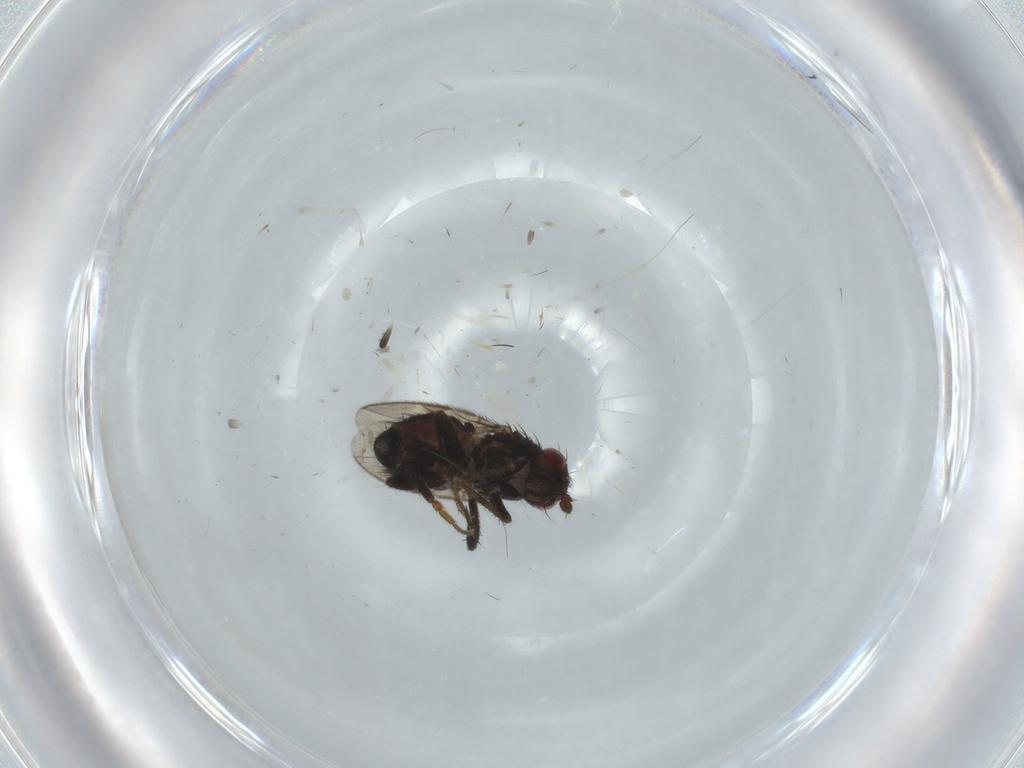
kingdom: Animalia
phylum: Arthropoda
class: Insecta
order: Diptera
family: Sphaeroceridae
